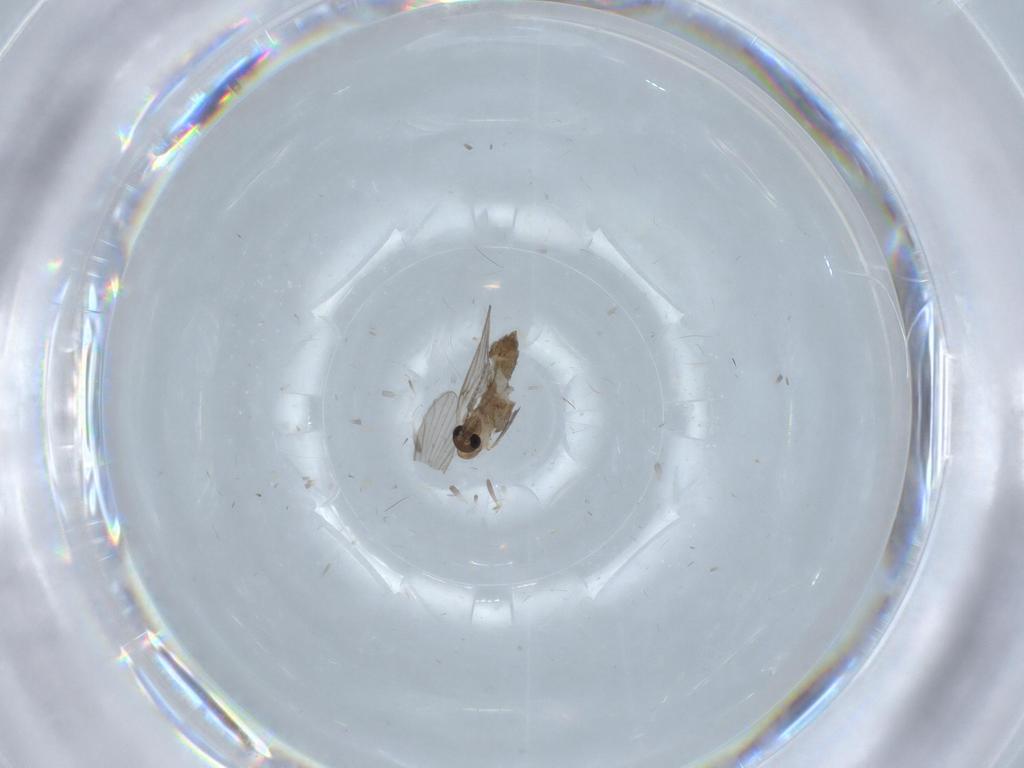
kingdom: Animalia
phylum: Arthropoda
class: Insecta
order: Diptera
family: Psychodidae
